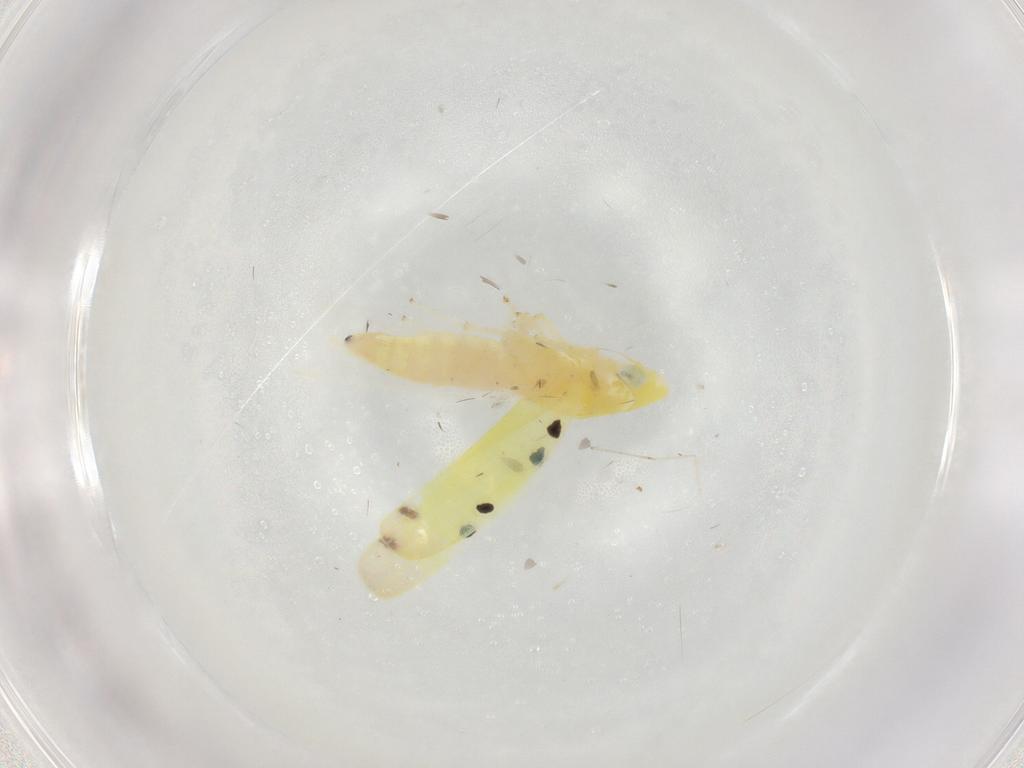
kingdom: Animalia
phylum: Arthropoda
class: Insecta
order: Hemiptera
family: Cicadellidae
